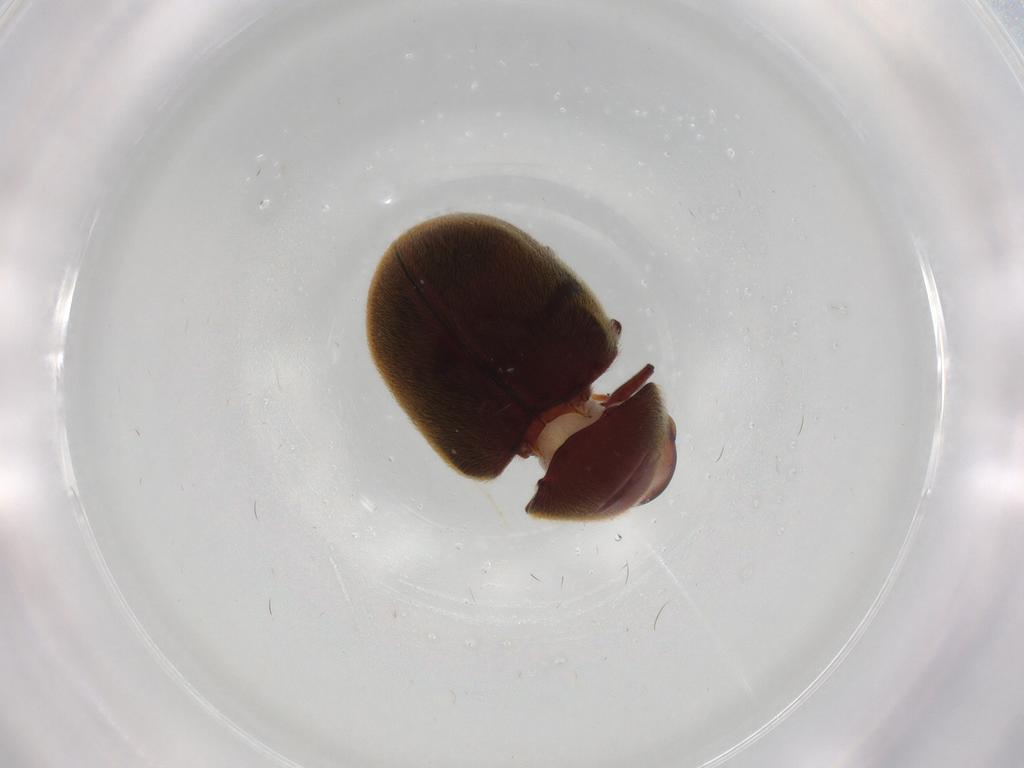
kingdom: Animalia
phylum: Arthropoda
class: Insecta
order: Coleoptera
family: Ptinidae
